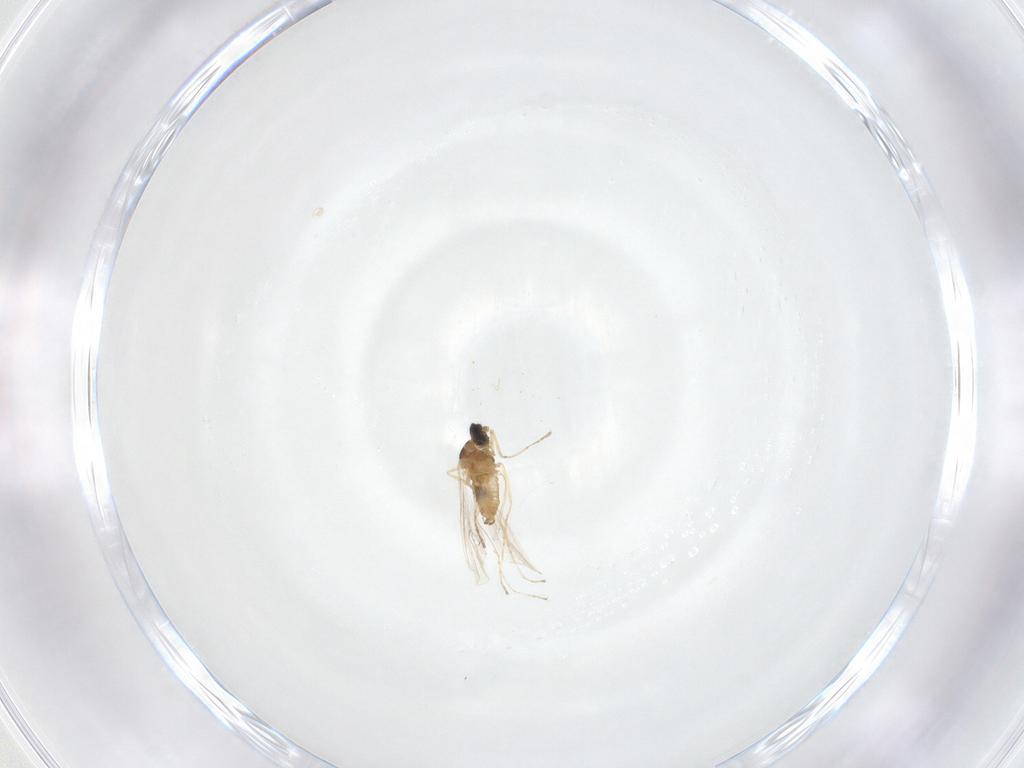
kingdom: Animalia
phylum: Arthropoda
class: Insecta
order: Diptera
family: Cecidomyiidae
